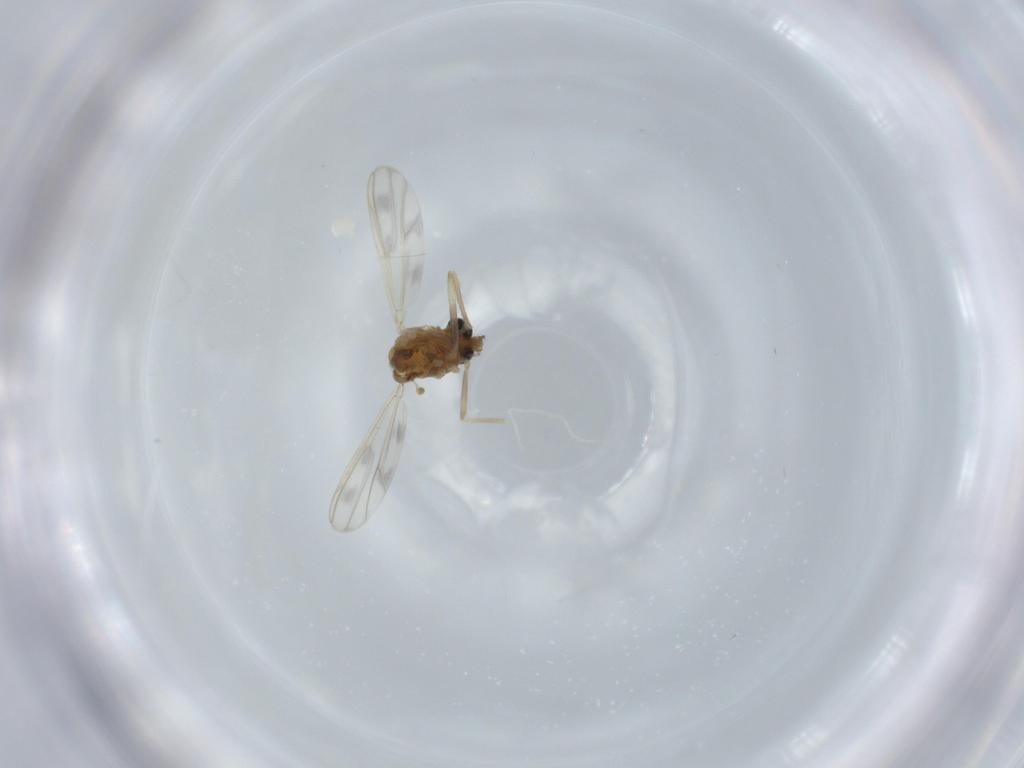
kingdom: Animalia
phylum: Arthropoda
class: Insecta
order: Diptera
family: Chironomidae
